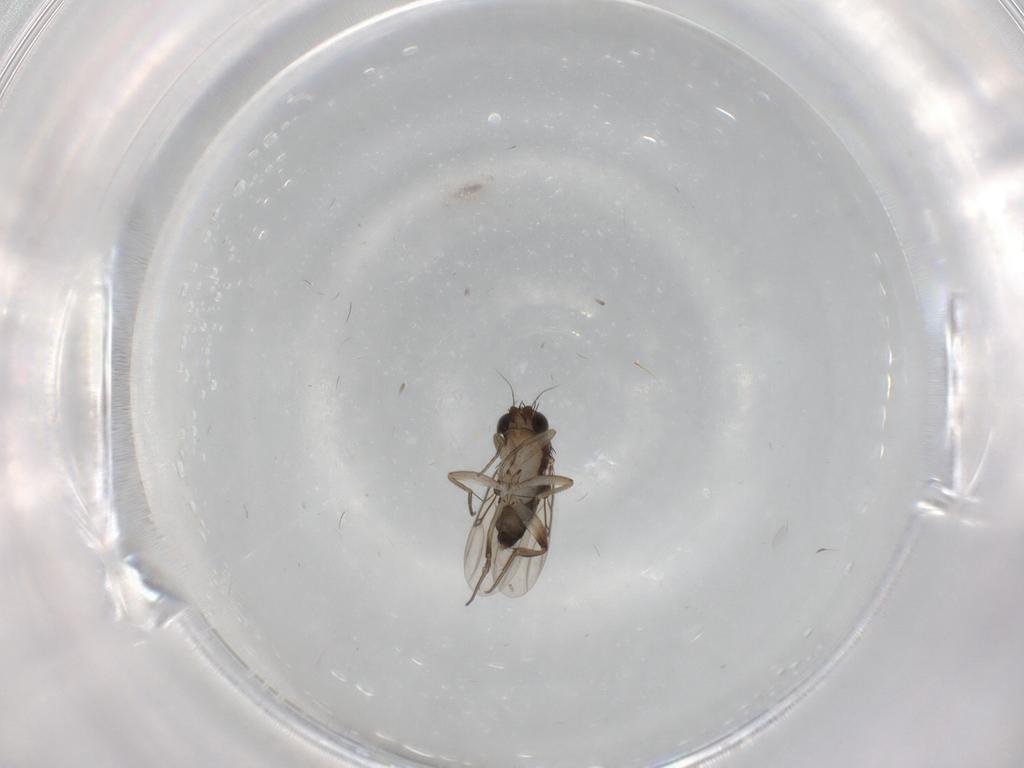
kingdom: Animalia
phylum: Arthropoda
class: Insecta
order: Diptera
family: Phoridae
